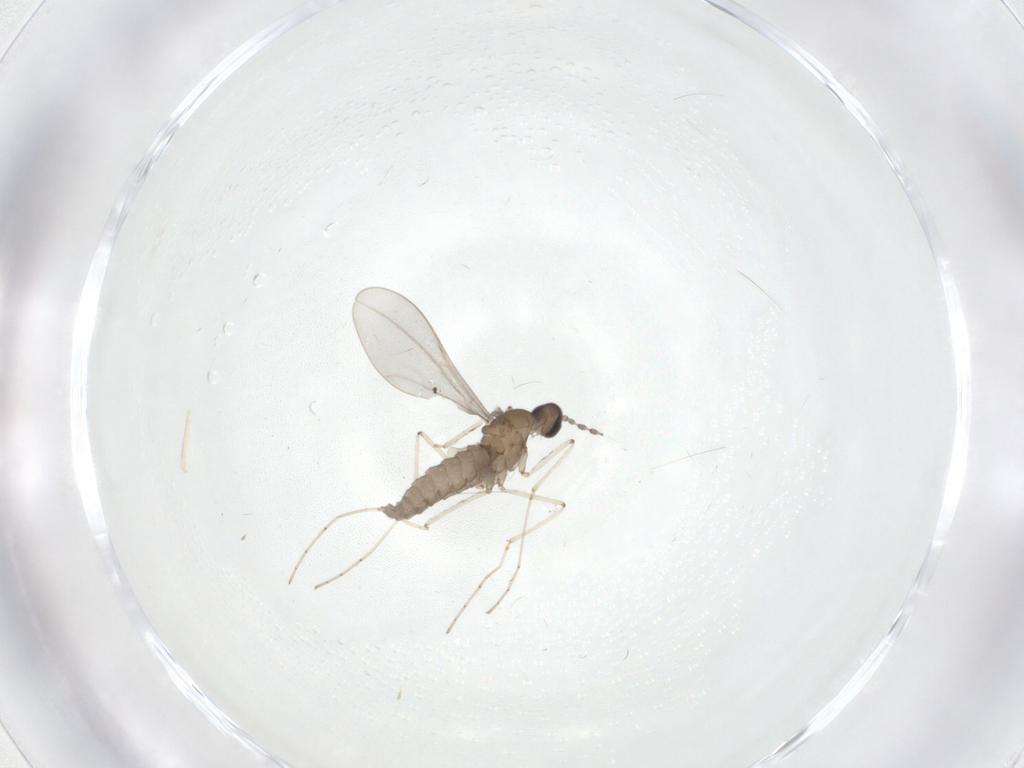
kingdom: Animalia
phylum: Arthropoda
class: Insecta
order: Diptera
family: Cecidomyiidae
